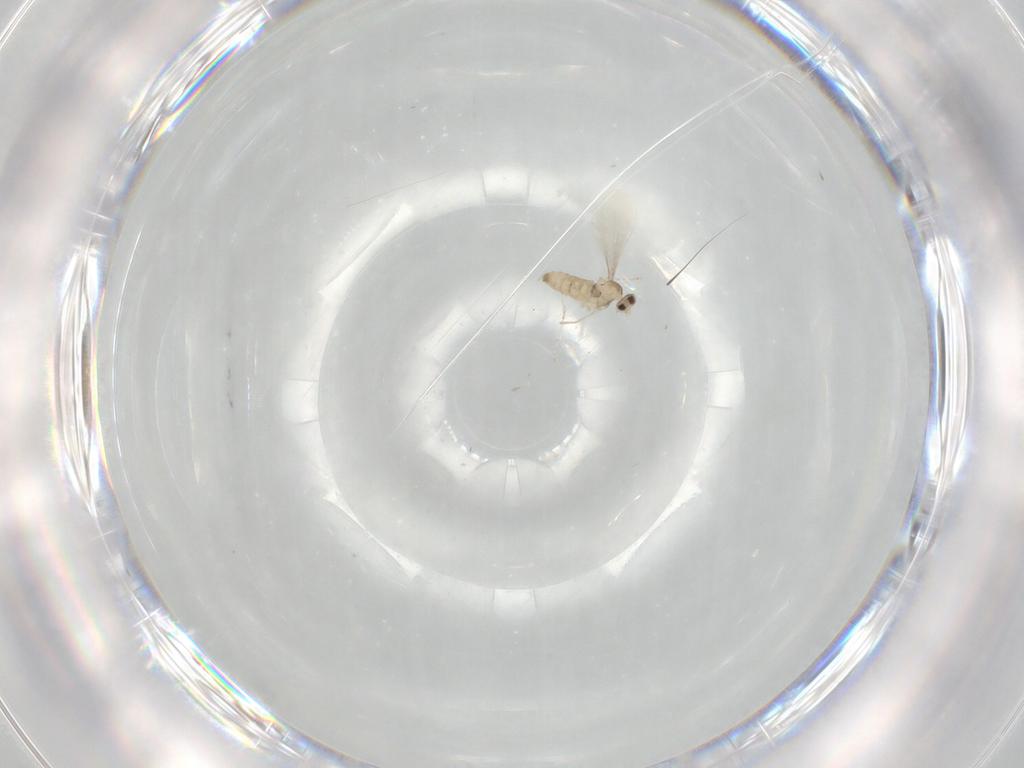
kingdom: Animalia
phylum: Arthropoda
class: Insecta
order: Diptera
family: Cecidomyiidae
